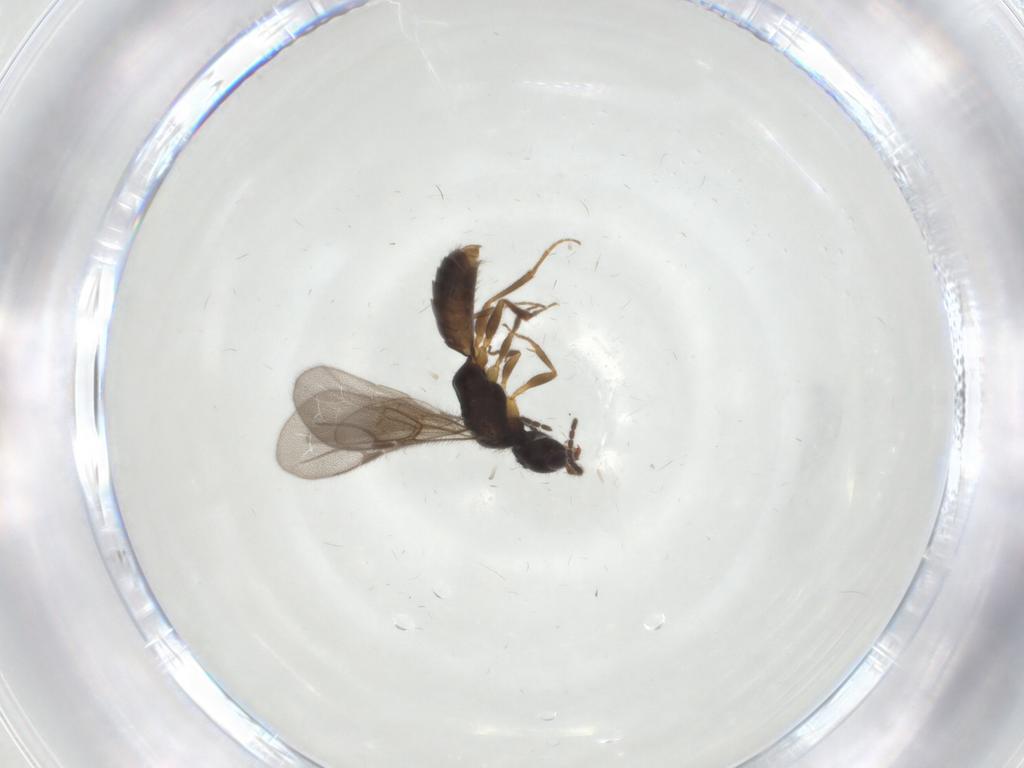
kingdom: Animalia
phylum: Arthropoda
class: Insecta
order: Hymenoptera
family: Bethylidae
